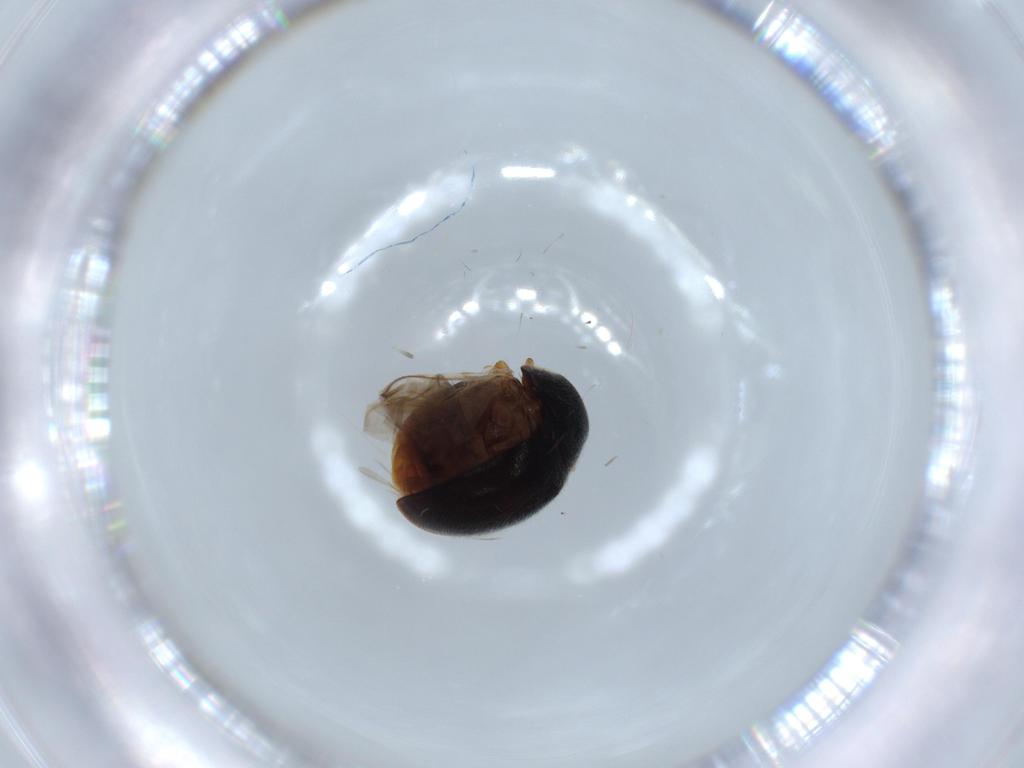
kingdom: Animalia
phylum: Arthropoda
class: Insecta
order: Coleoptera
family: Coccinellidae
